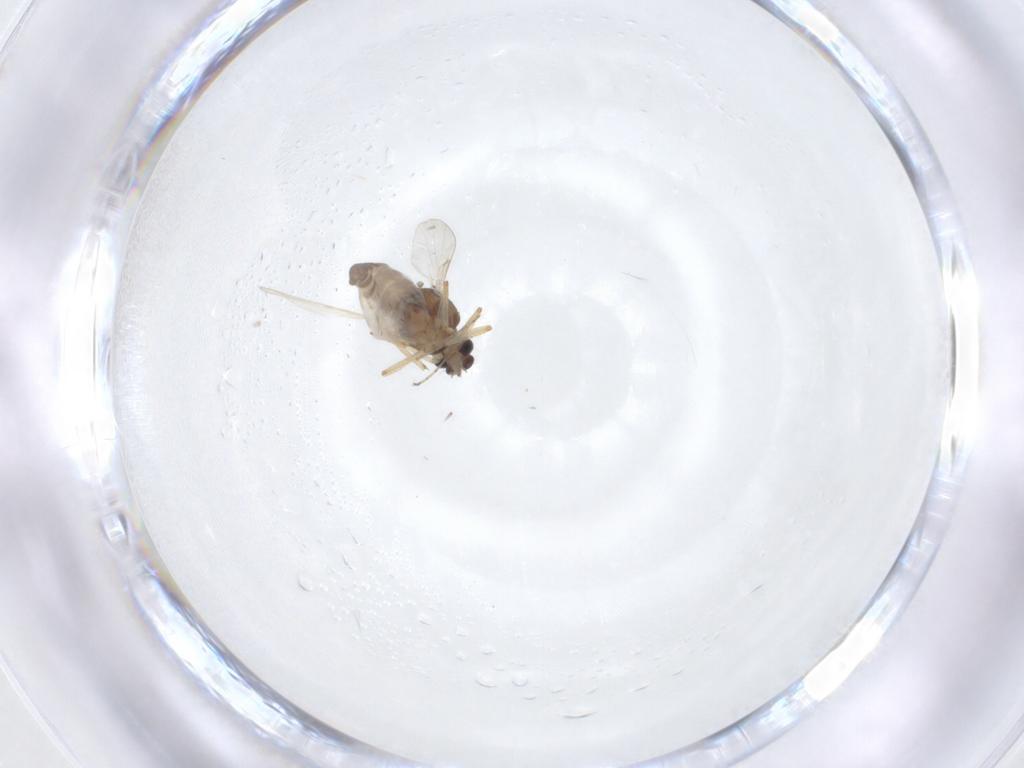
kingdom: Animalia
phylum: Arthropoda
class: Insecta
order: Diptera
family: Ceratopogonidae
